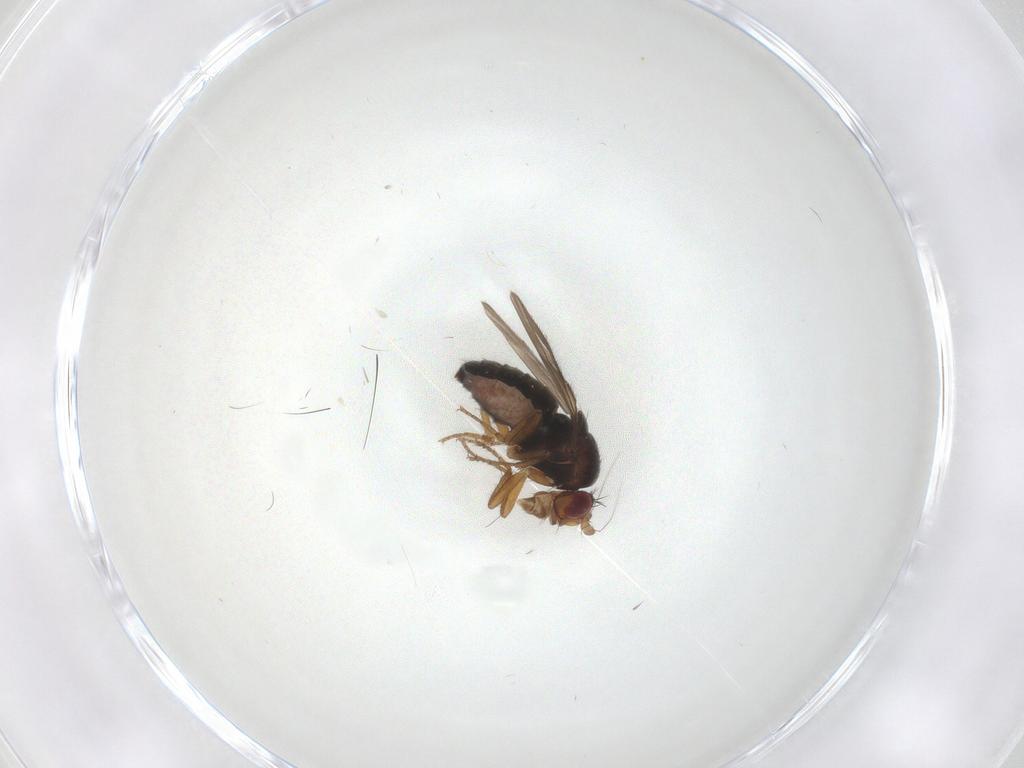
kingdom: Animalia
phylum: Arthropoda
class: Insecta
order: Diptera
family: Sphaeroceridae
